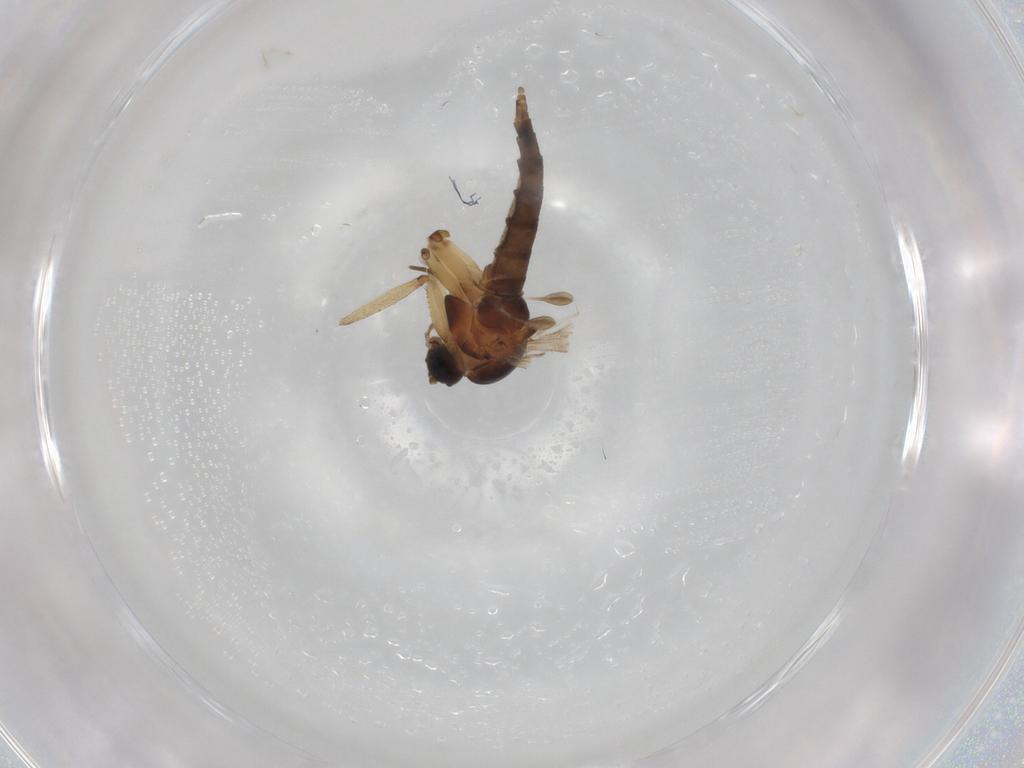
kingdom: Animalia
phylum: Arthropoda
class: Insecta
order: Diptera
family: Sciaridae
